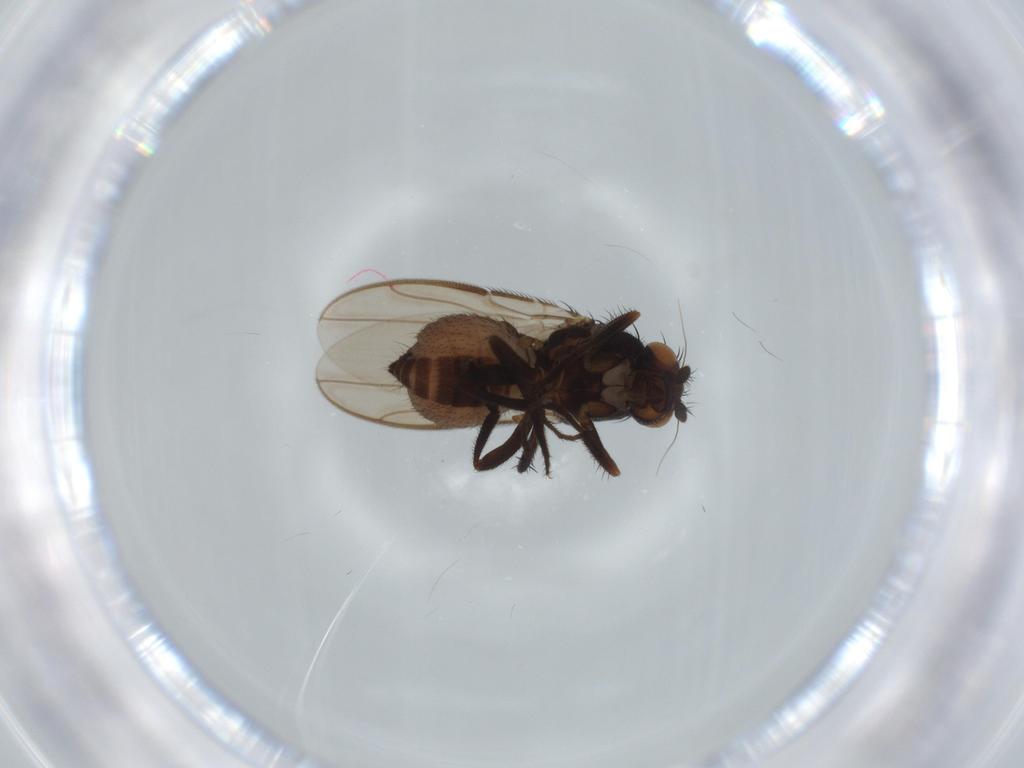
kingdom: Animalia
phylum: Arthropoda
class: Insecta
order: Diptera
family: Sphaeroceridae
